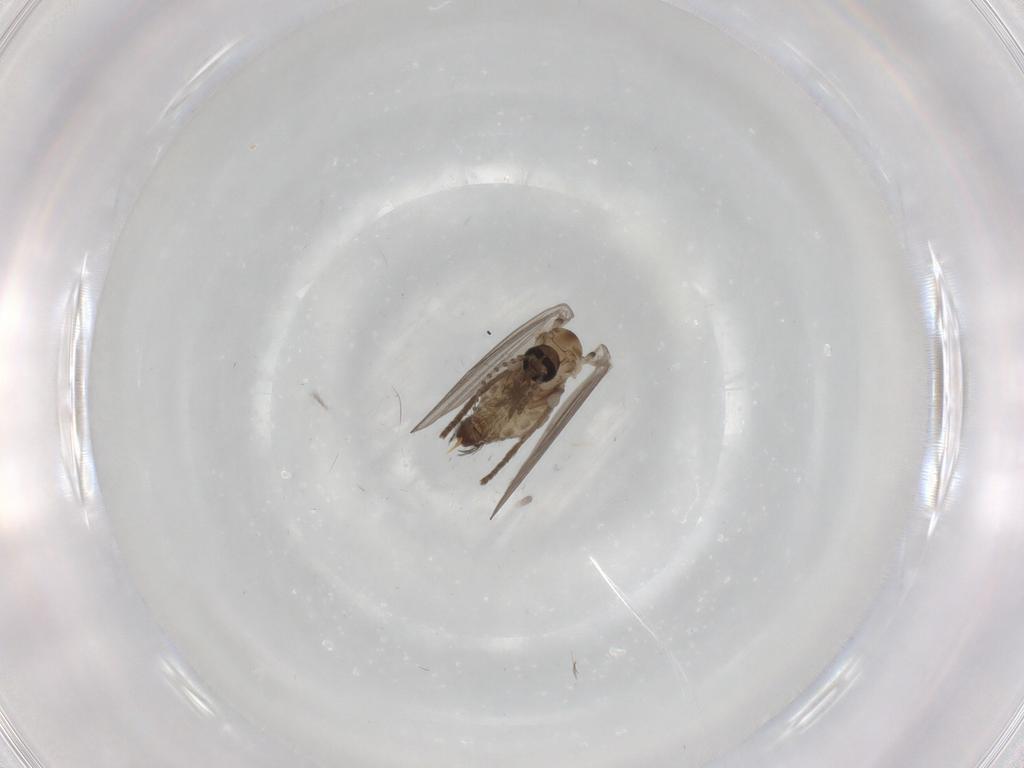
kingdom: Animalia
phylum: Arthropoda
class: Insecta
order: Diptera
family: Psychodidae
